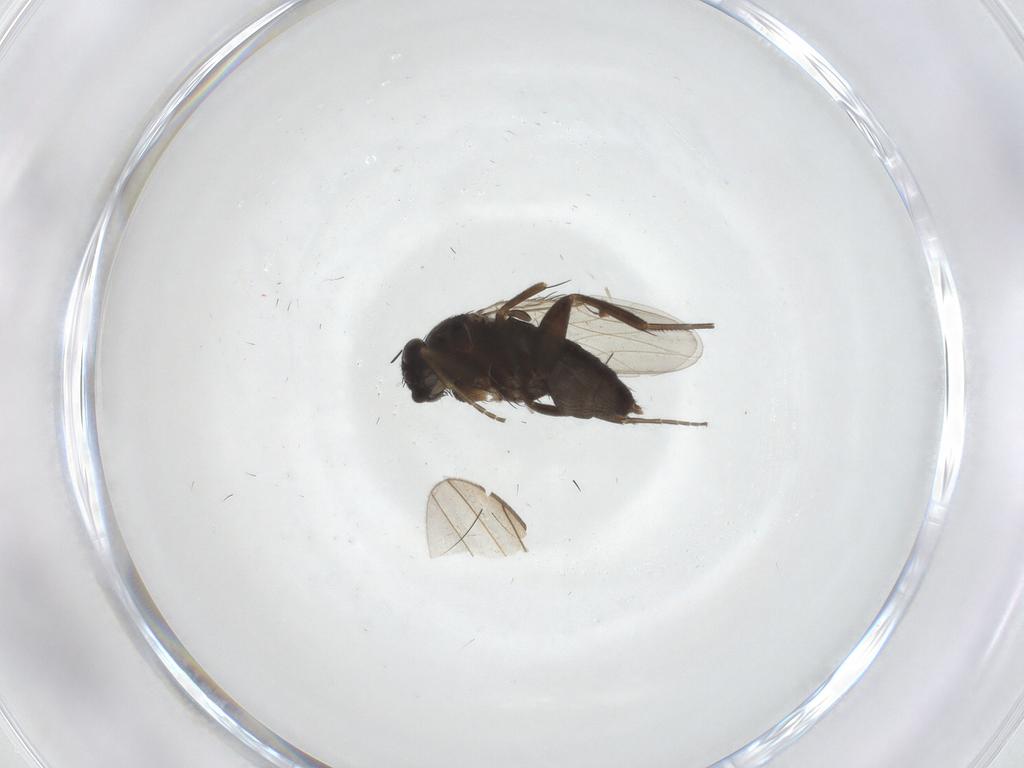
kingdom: Animalia
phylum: Arthropoda
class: Insecta
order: Diptera
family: Phoridae
